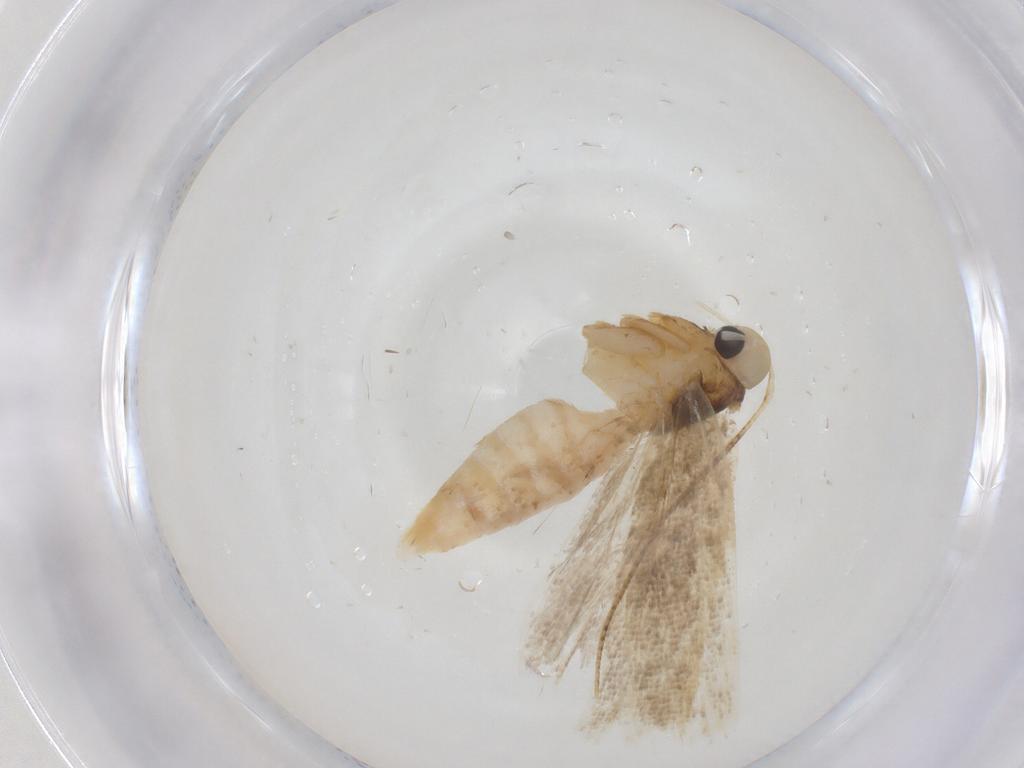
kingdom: Animalia
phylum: Arthropoda
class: Insecta
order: Lepidoptera
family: Gelechiidae
